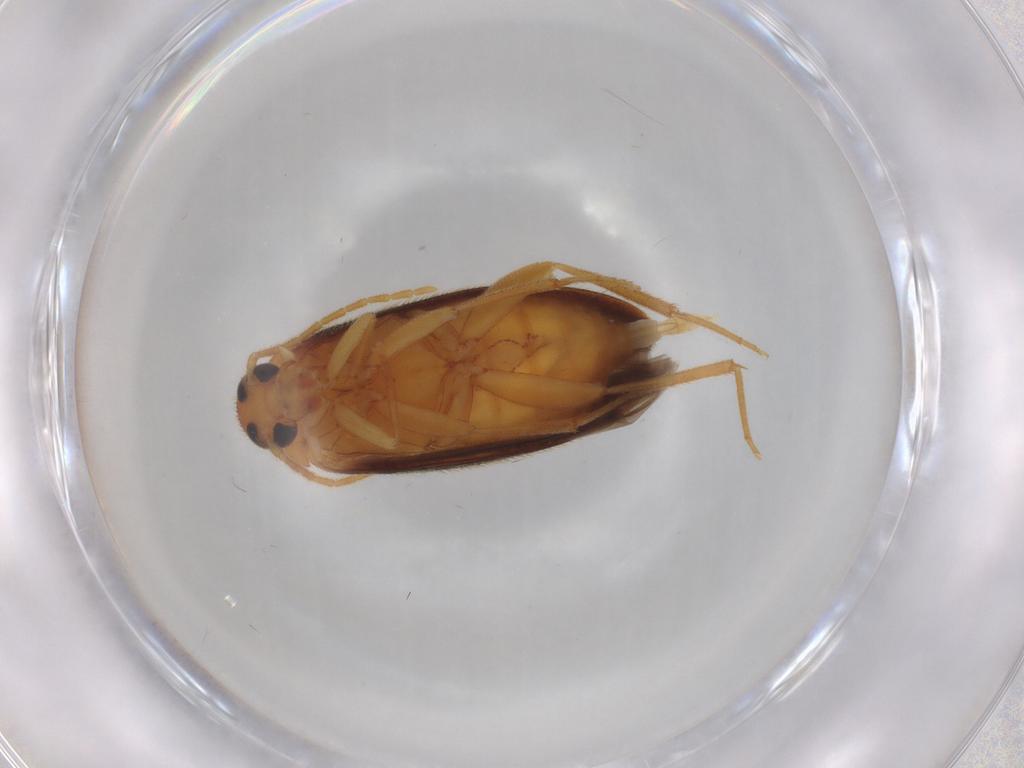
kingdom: Animalia
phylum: Arthropoda
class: Insecta
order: Coleoptera
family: Scraptiidae
